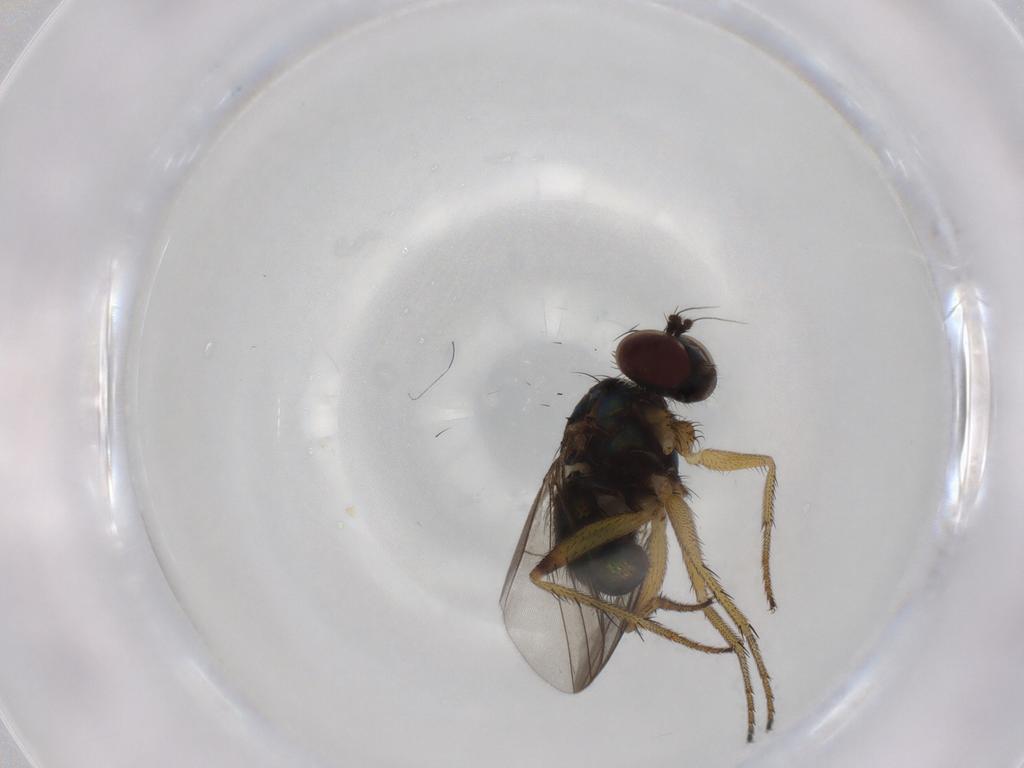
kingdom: Animalia
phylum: Arthropoda
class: Insecta
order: Diptera
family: Dolichopodidae
